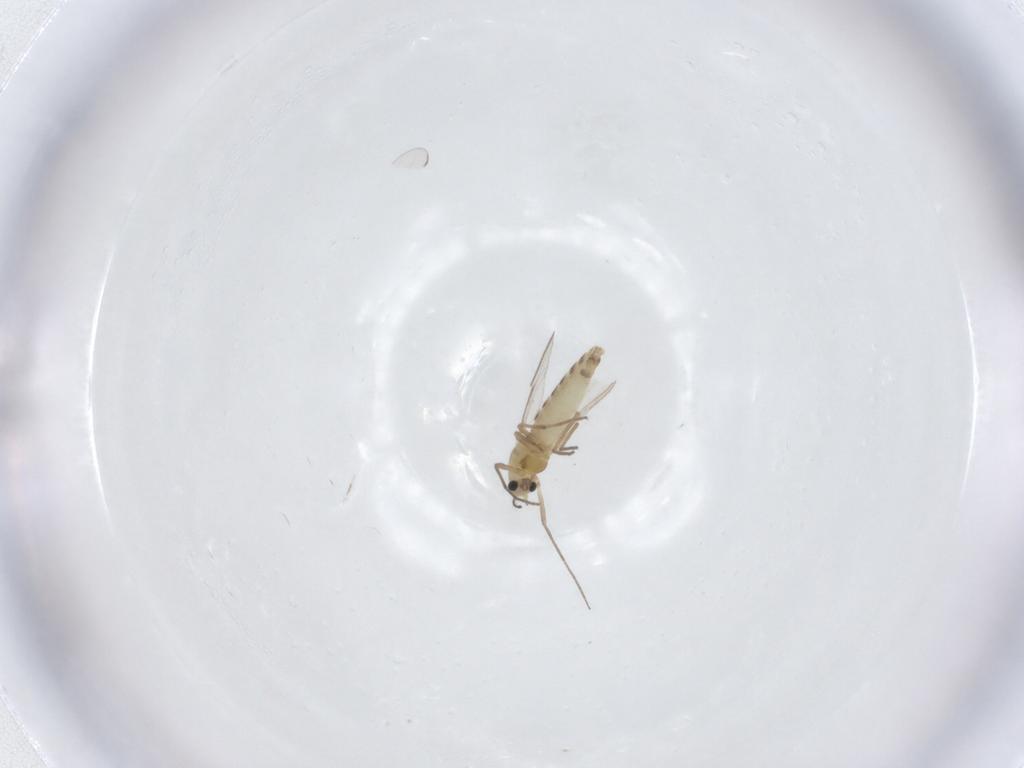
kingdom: Animalia
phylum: Arthropoda
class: Insecta
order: Diptera
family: Chironomidae
